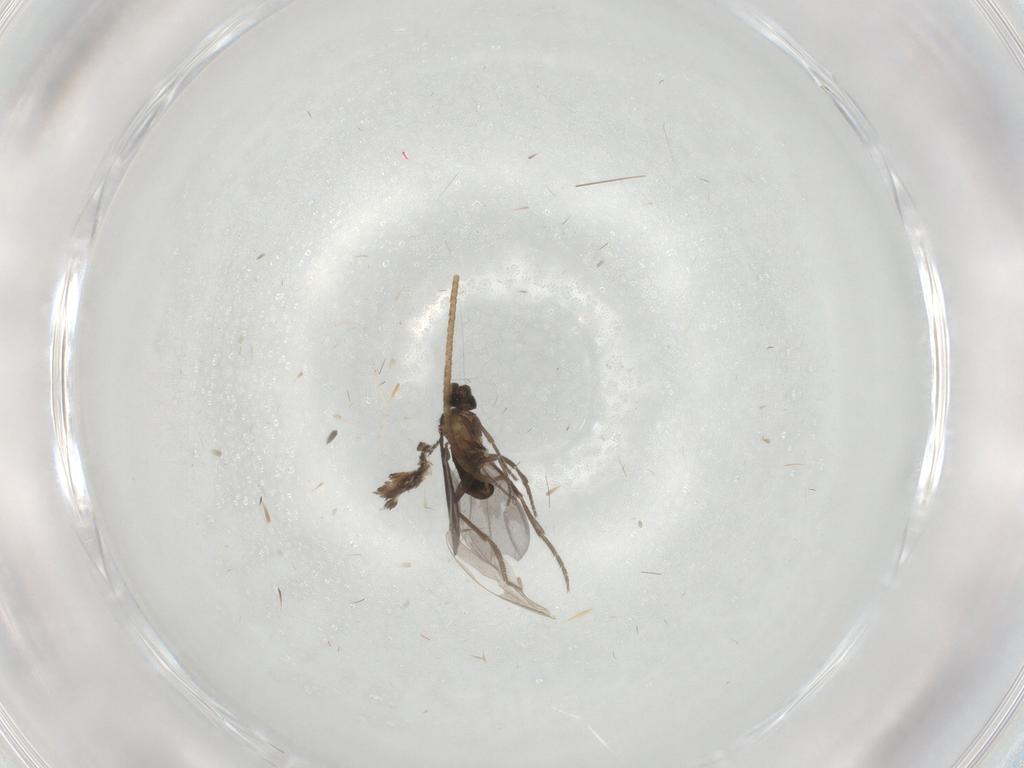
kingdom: Animalia
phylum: Arthropoda
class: Insecta
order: Diptera
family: Phoridae
